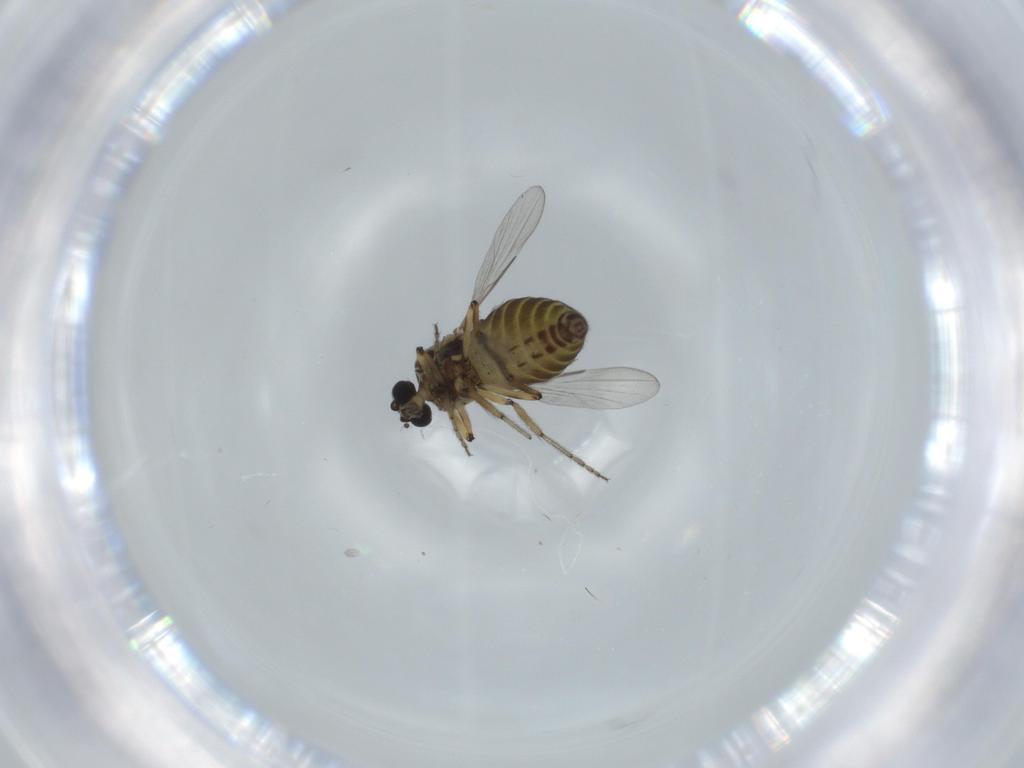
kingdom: Animalia
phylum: Arthropoda
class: Insecta
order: Diptera
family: Ceratopogonidae
